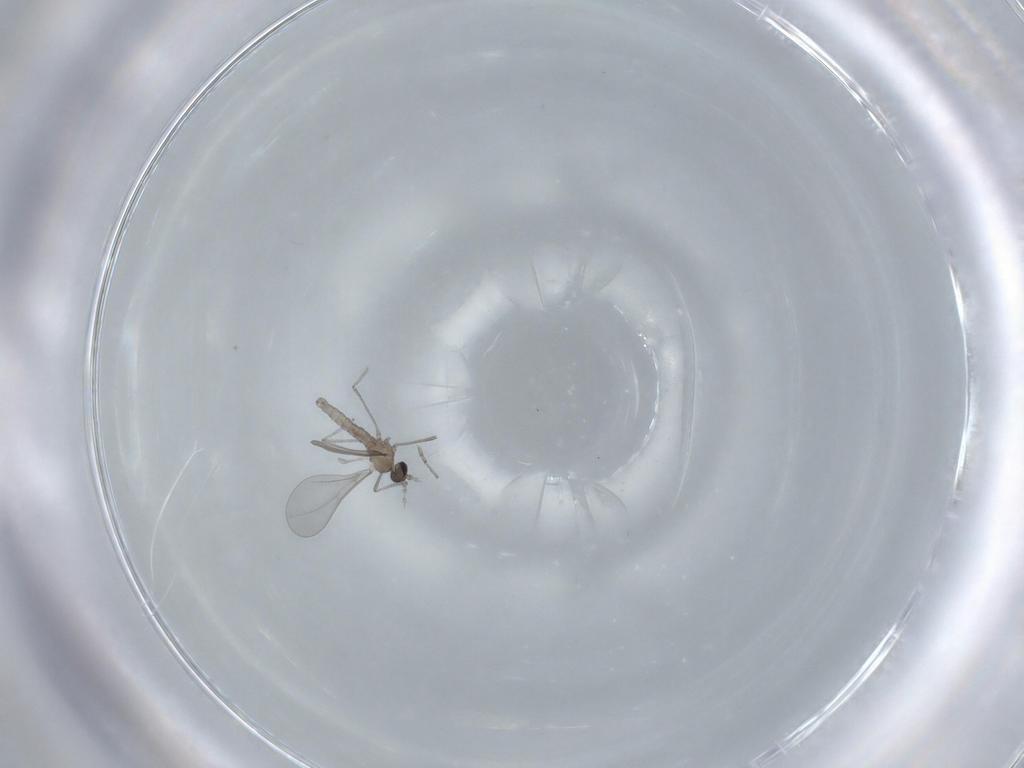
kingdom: Animalia
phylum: Arthropoda
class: Insecta
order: Diptera
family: Cecidomyiidae
